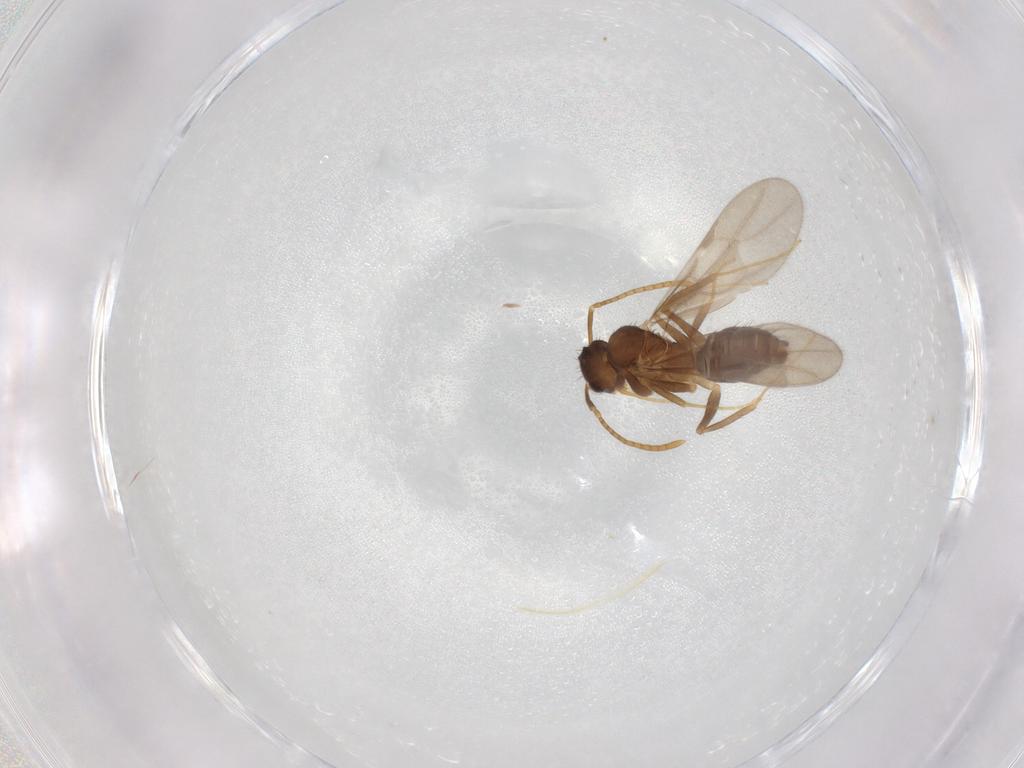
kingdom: Animalia
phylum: Arthropoda
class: Insecta
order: Hymenoptera
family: Formicidae
